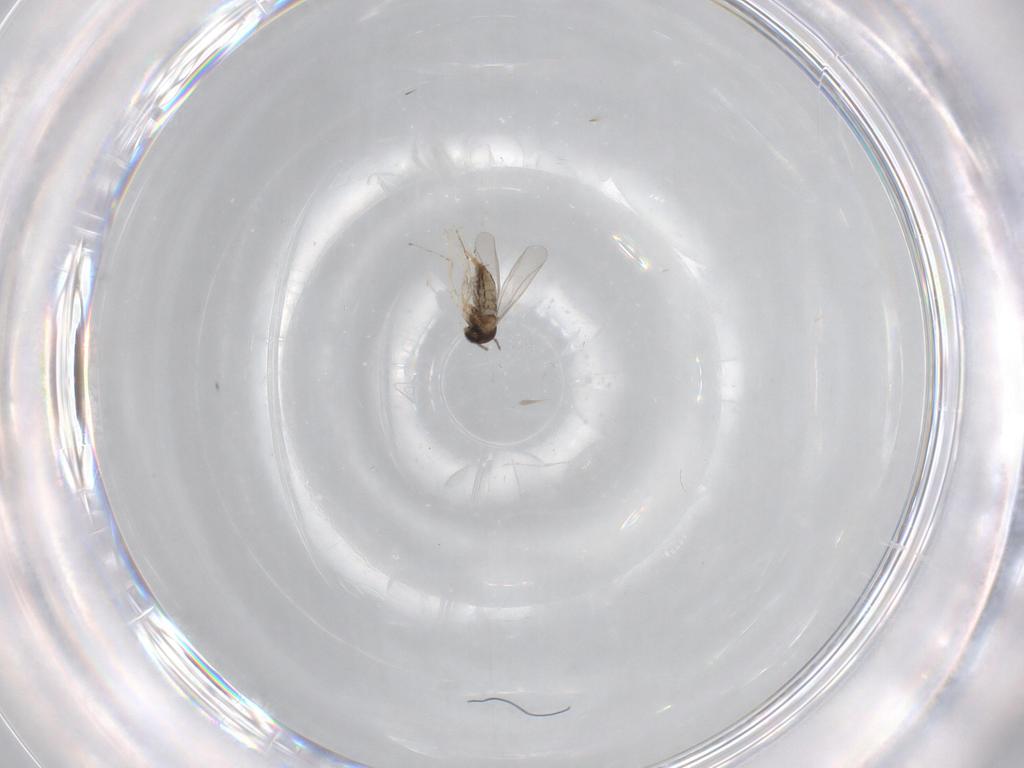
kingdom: Animalia
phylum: Arthropoda
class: Insecta
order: Diptera
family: Cecidomyiidae
